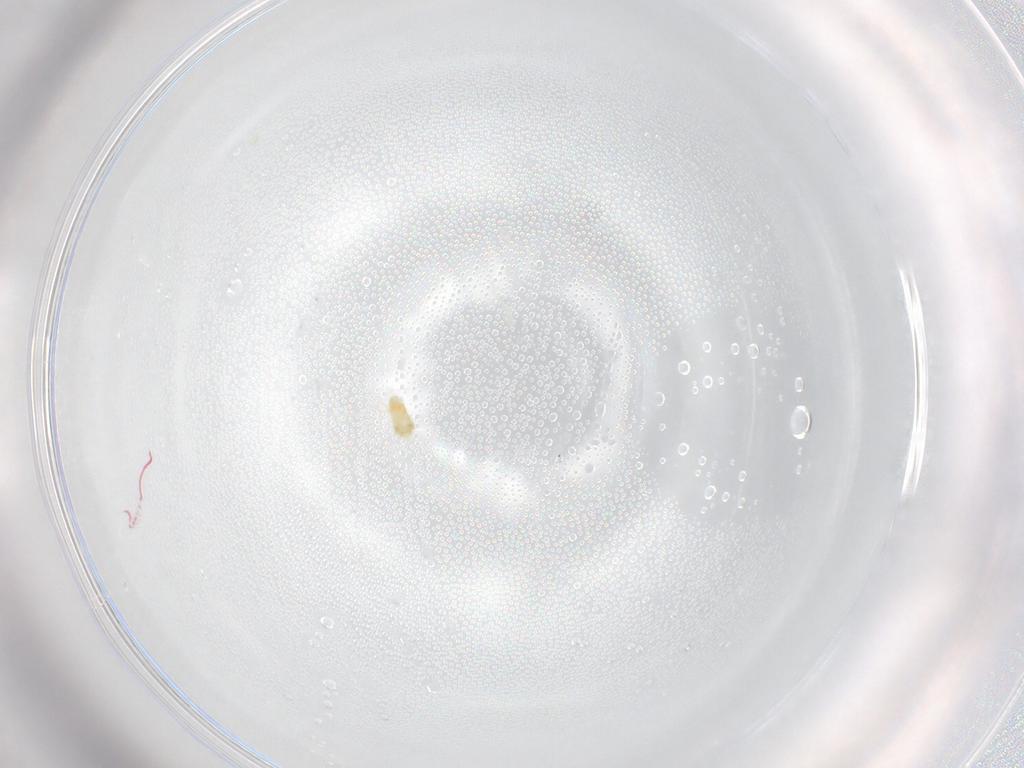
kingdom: Animalia
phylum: Arthropoda
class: Arachnida
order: Trombidiformes
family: Eupodidae
